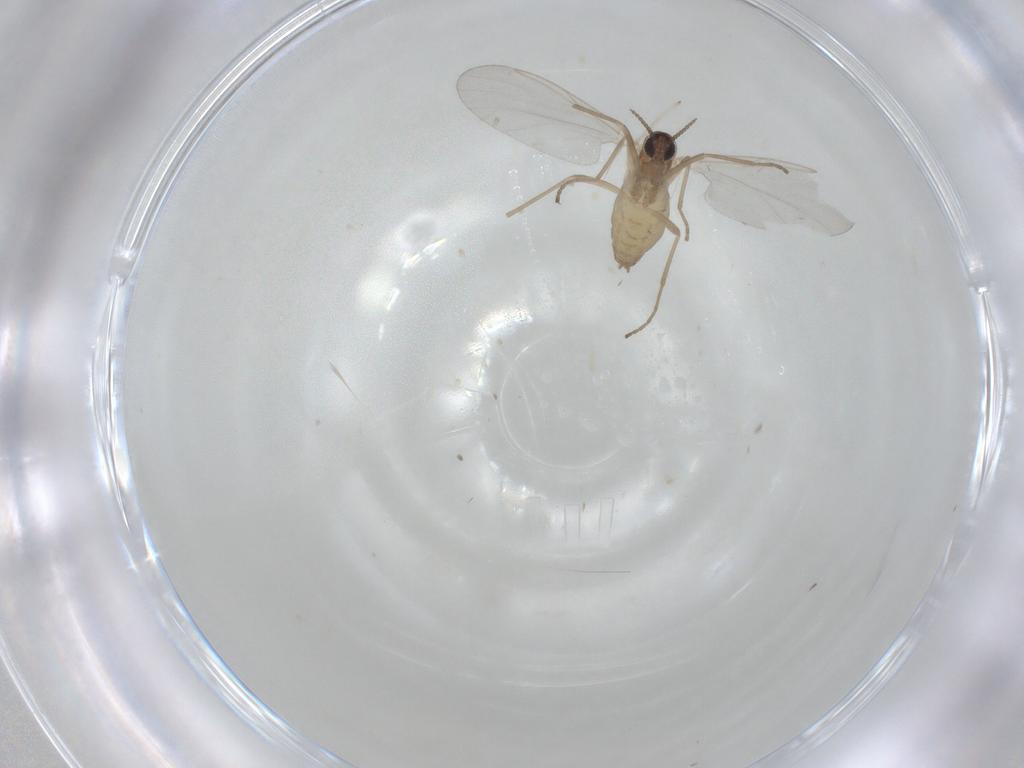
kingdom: Animalia
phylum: Arthropoda
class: Insecta
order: Diptera
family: Cecidomyiidae
